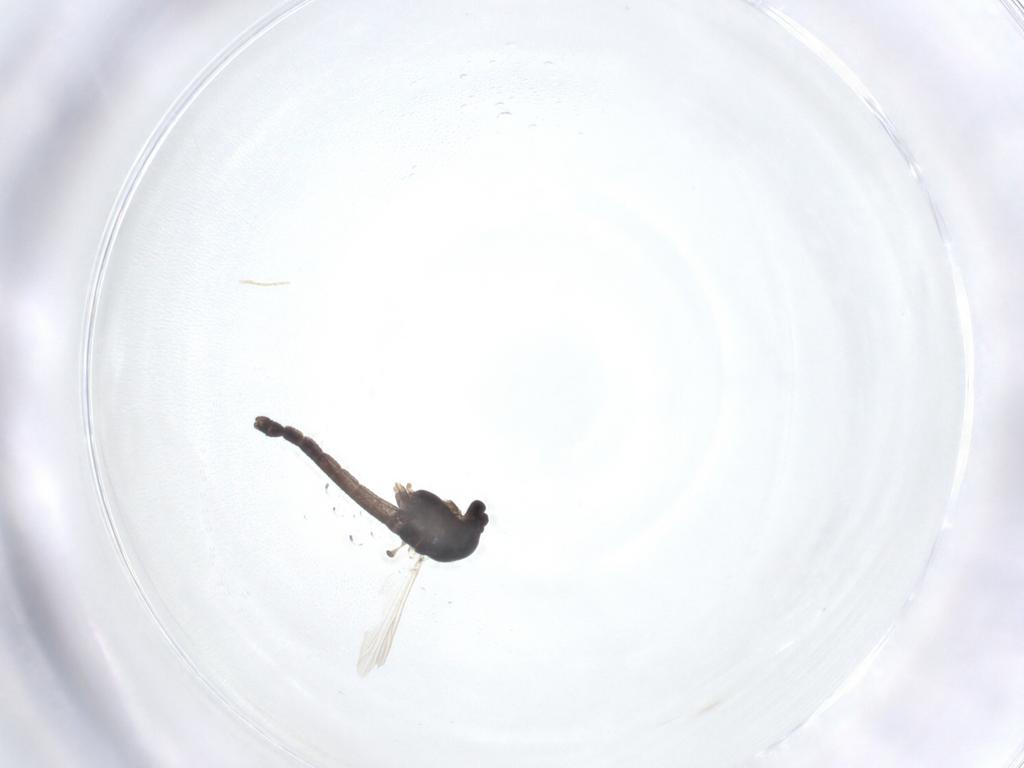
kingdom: Animalia
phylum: Arthropoda
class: Insecta
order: Diptera
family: Chironomidae
